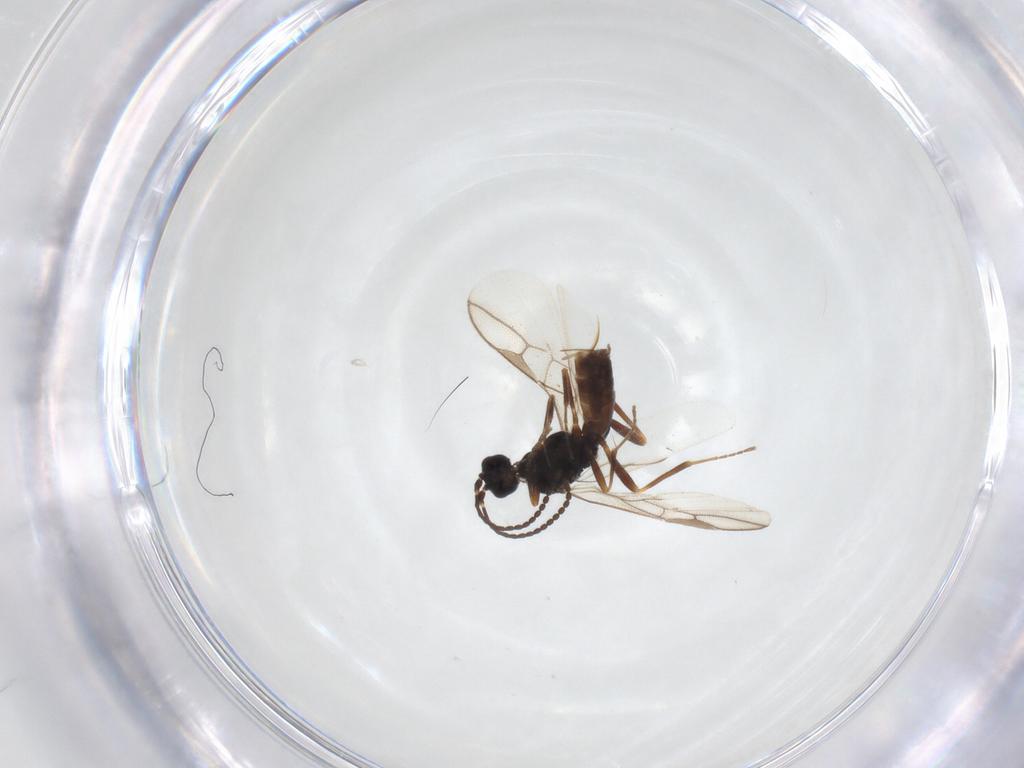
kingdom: Animalia
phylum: Arthropoda
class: Insecta
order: Hymenoptera
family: Braconidae
